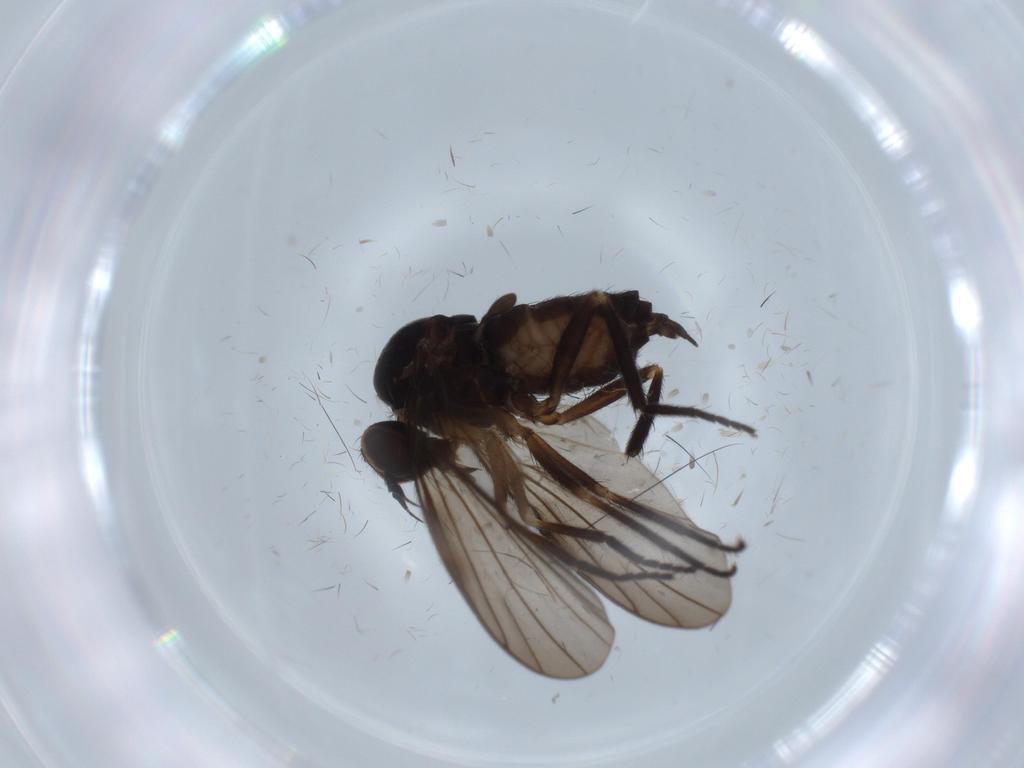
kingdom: Animalia
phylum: Arthropoda
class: Insecta
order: Diptera
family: Empididae
